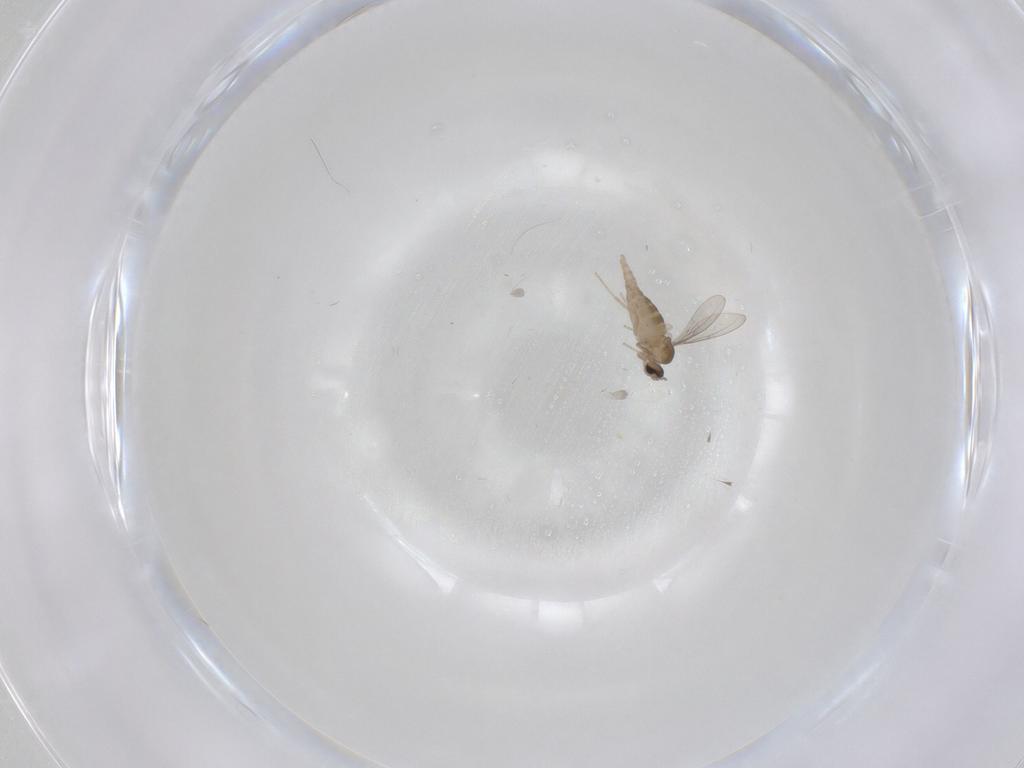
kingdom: Animalia
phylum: Arthropoda
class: Insecta
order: Diptera
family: Cecidomyiidae
